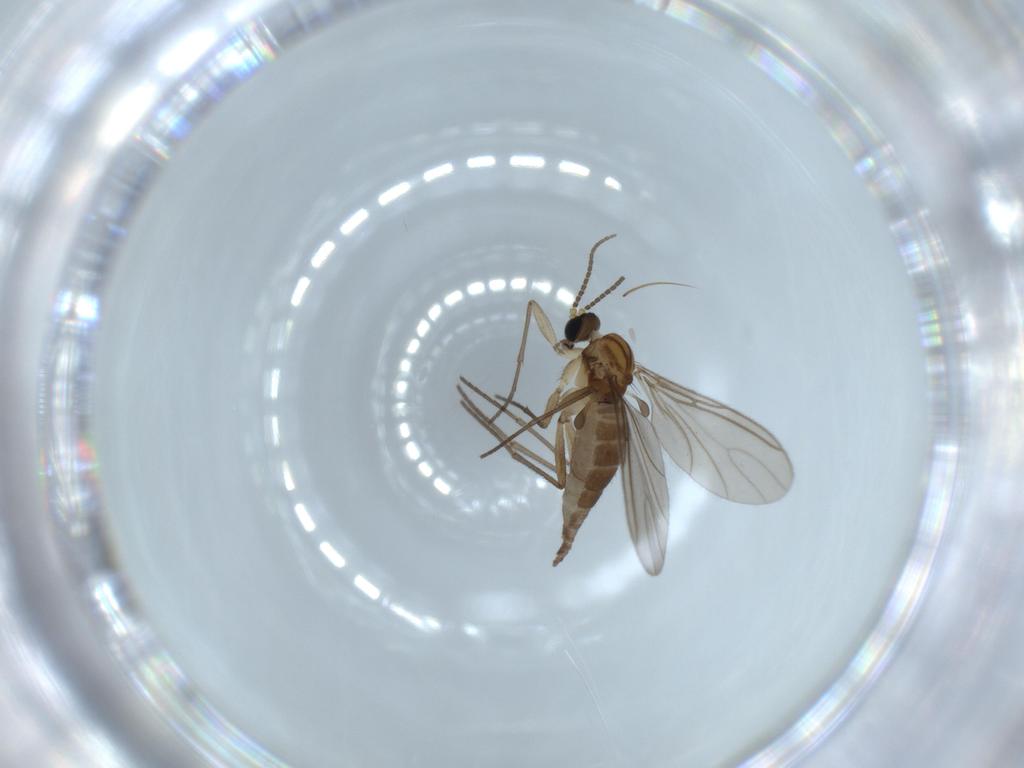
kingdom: Animalia
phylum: Arthropoda
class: Insecta
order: Diptera
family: Sciaridae
